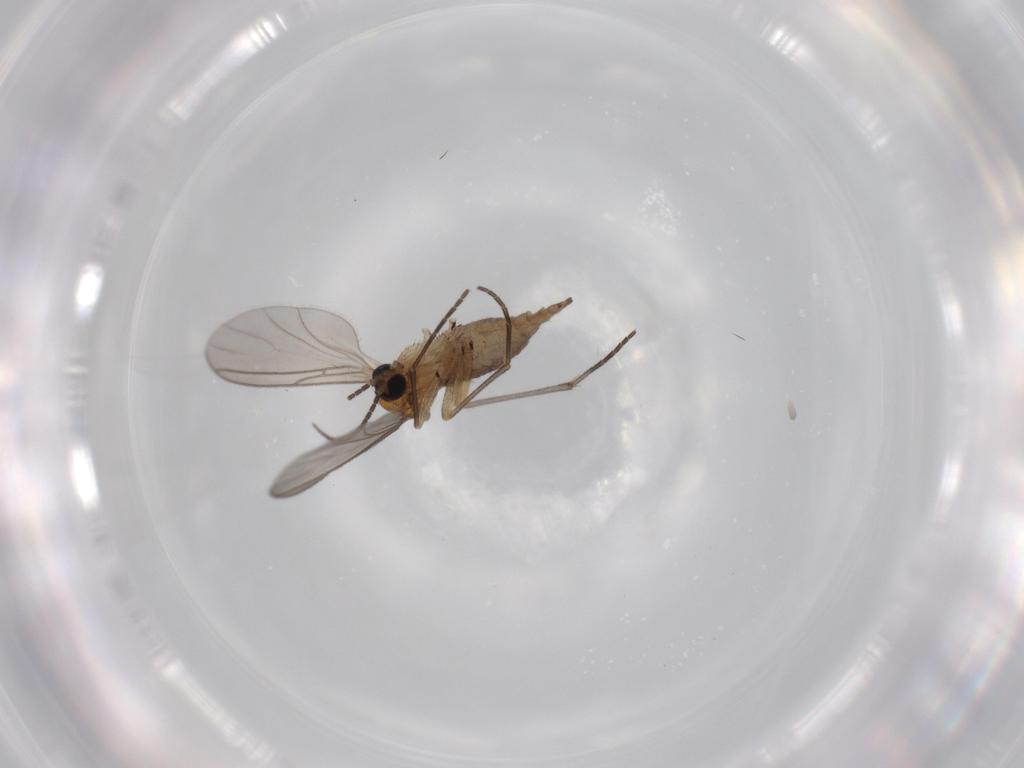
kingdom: Animalia
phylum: Arthropoda
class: Insecta
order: Diptera
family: Sciaridae
